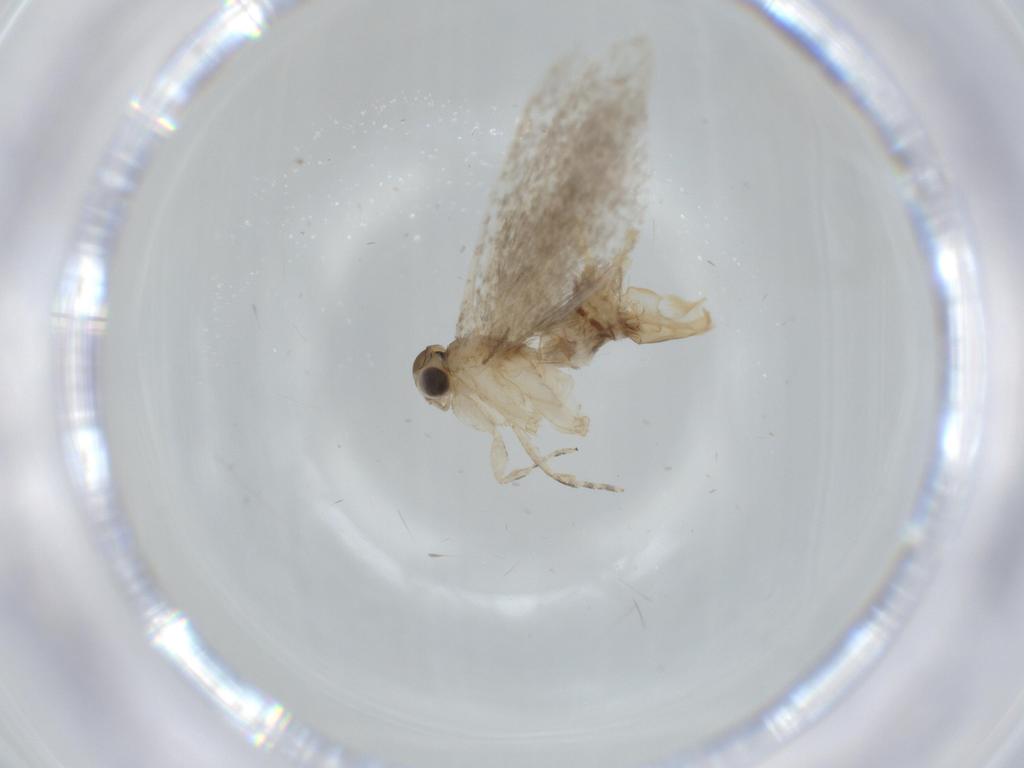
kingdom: Animalia
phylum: Arthropoda
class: Insecta
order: Lepidoptera
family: Tineidae
